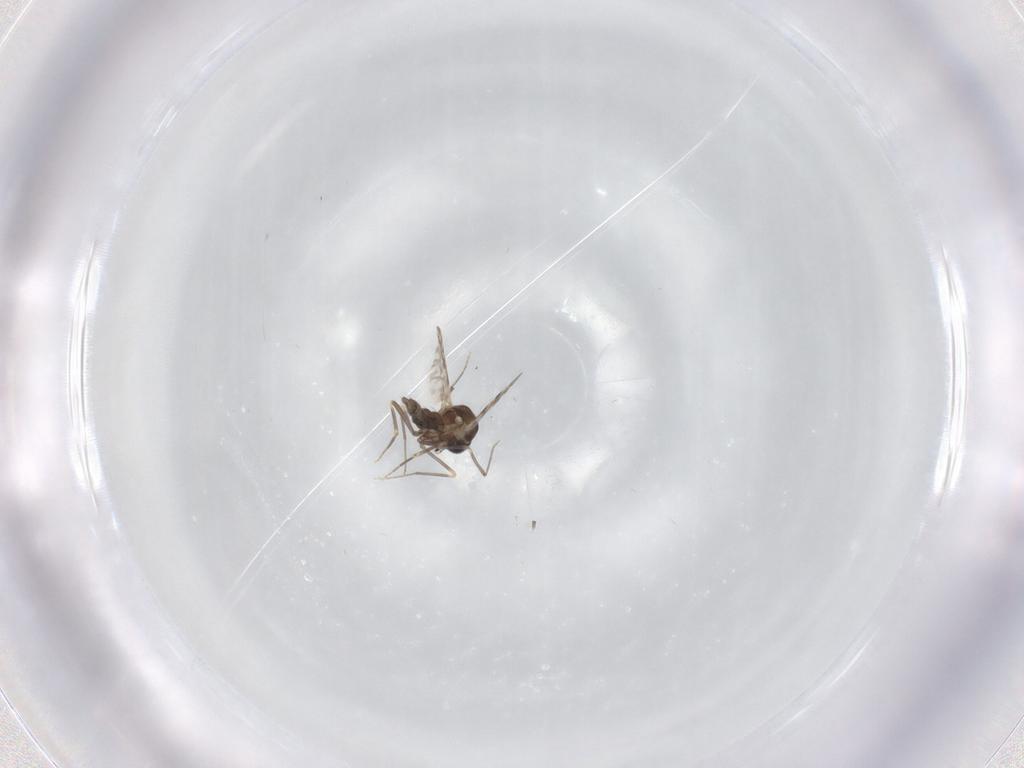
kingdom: Animalia
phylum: Arthropoda
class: Insecta
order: Diptera
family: Ceratopogonidae
